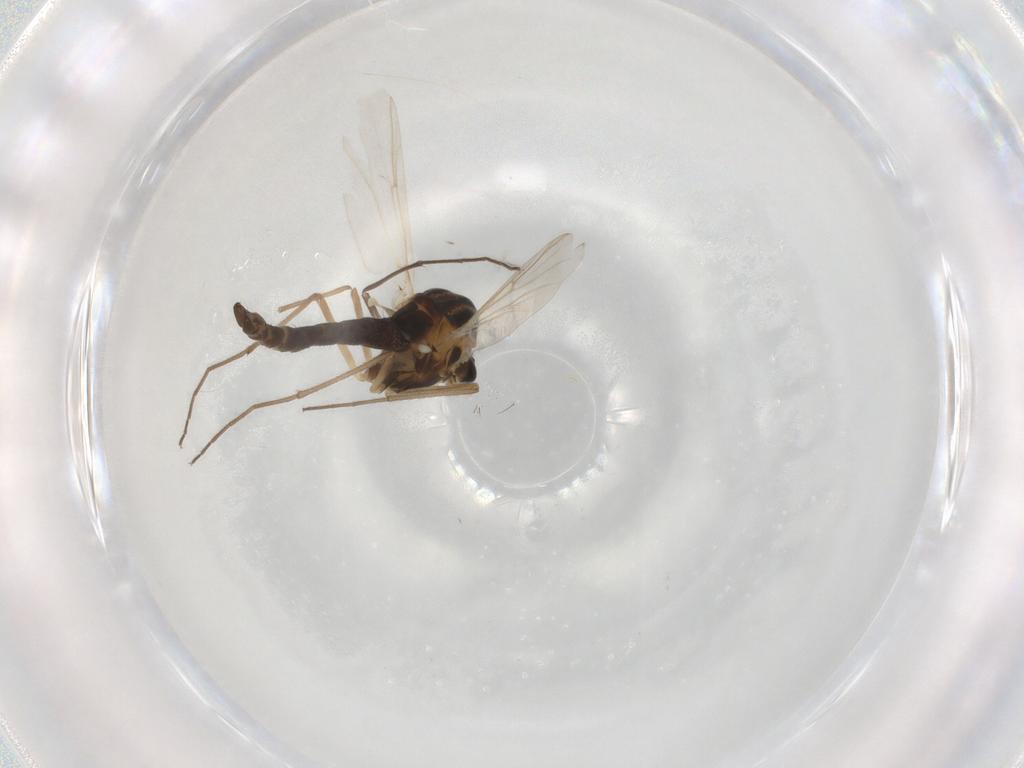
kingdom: Animalia
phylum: Arthropoda
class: Insecta
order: Diptera
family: Chironomidae
